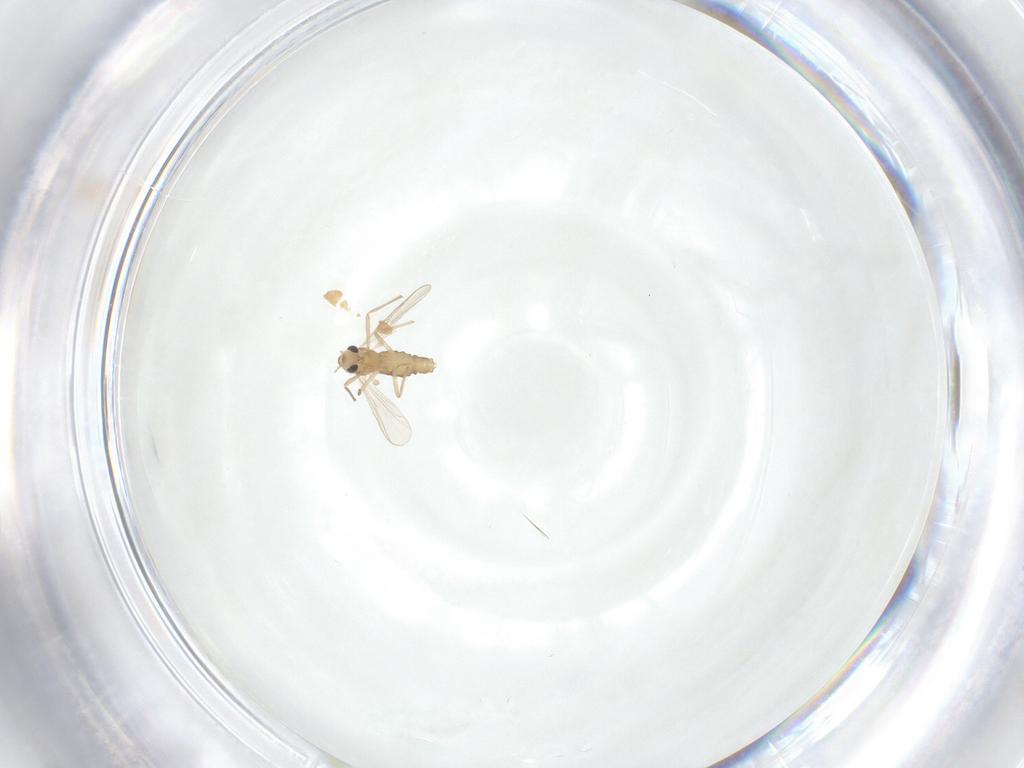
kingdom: Animalia
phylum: Arthropoda
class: Insecta
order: Diptera
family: Chironomidae
